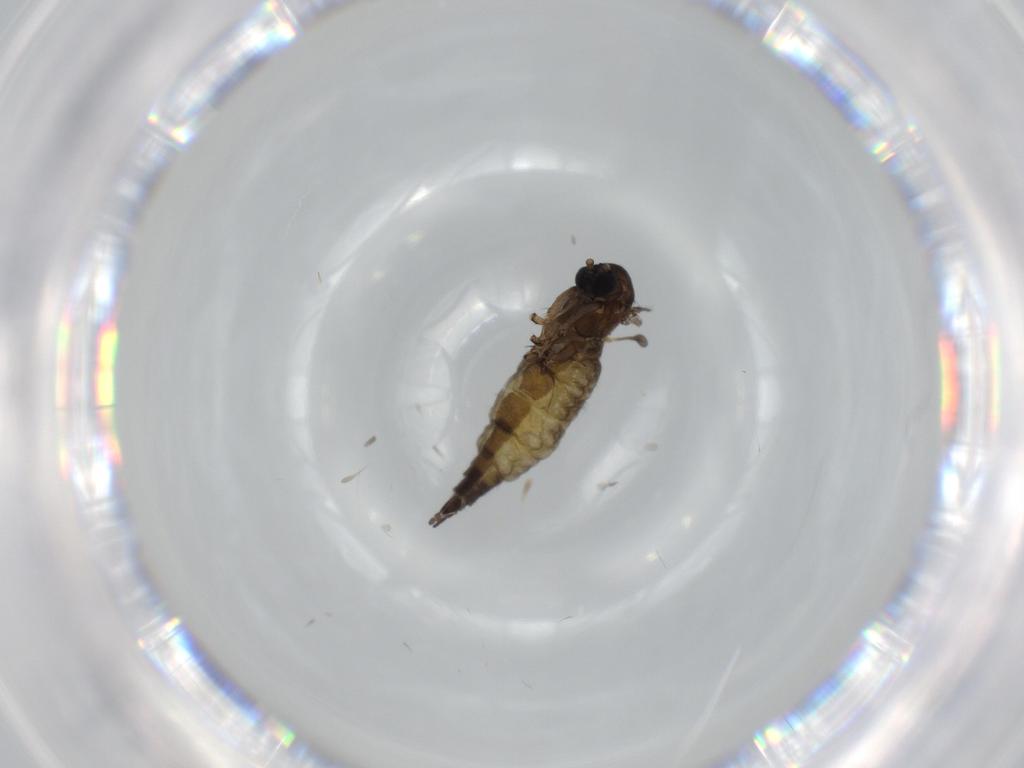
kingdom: Animalia
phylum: Arthropoda
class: Insecta
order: Diptera
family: Sciaridae
